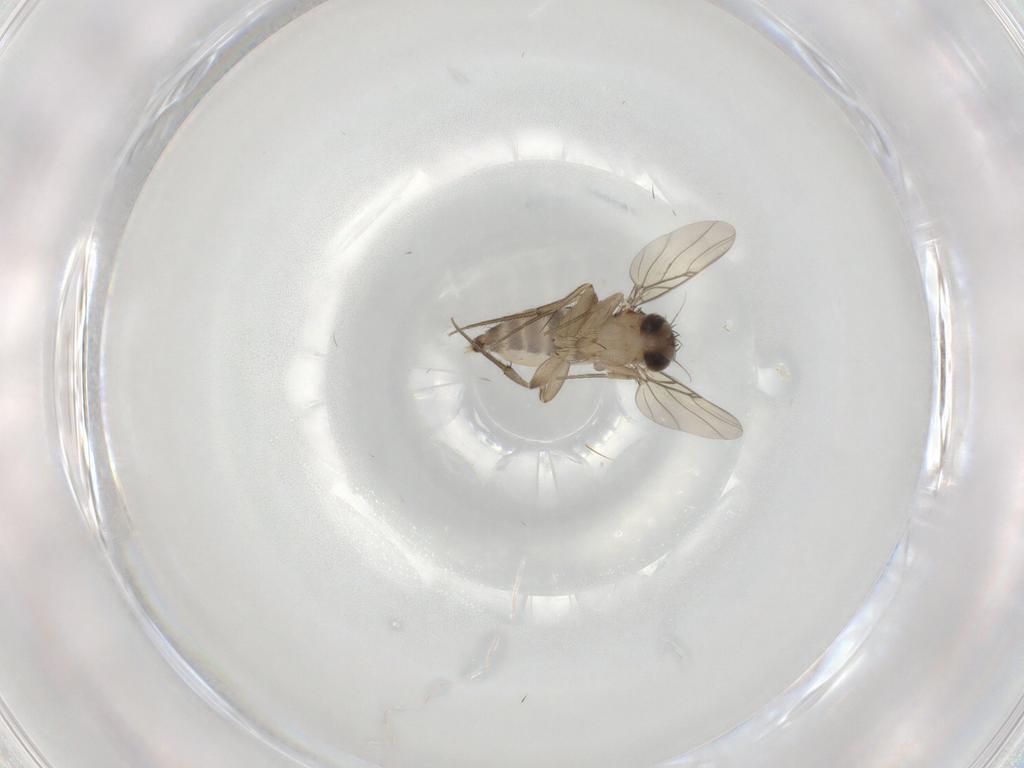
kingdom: Animalia
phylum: Arthropoda
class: Insecta
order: Diptera
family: Phoridae
